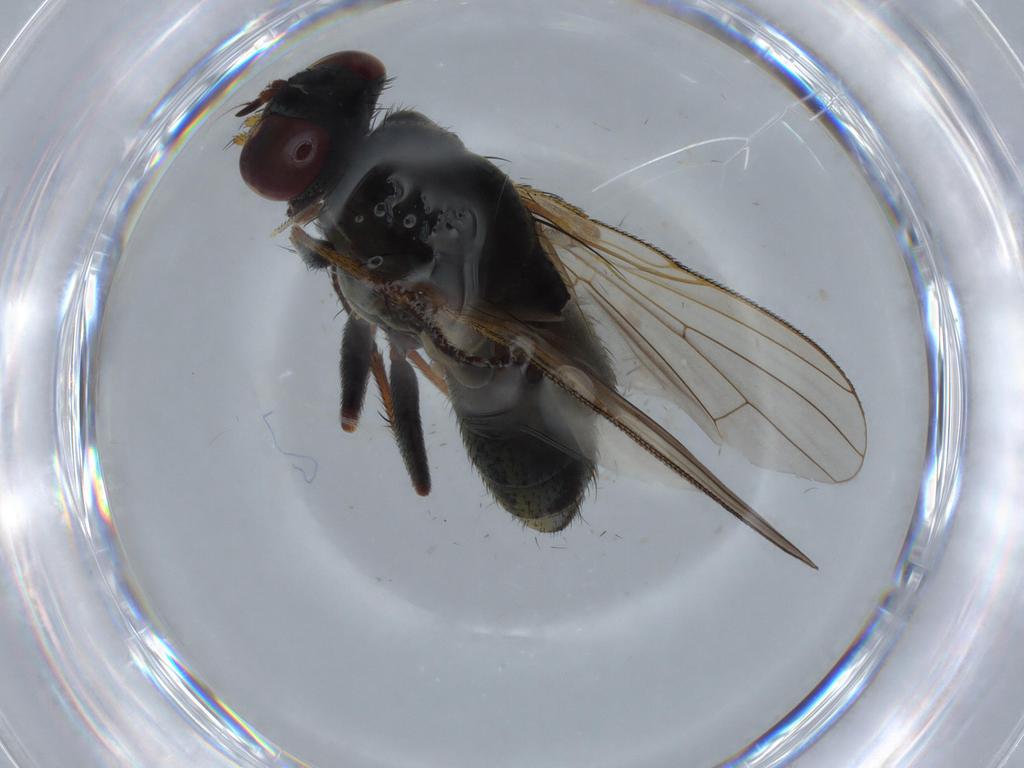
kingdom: Animalia
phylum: Arthropoda
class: Insecta
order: Diptera
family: Muscidae
